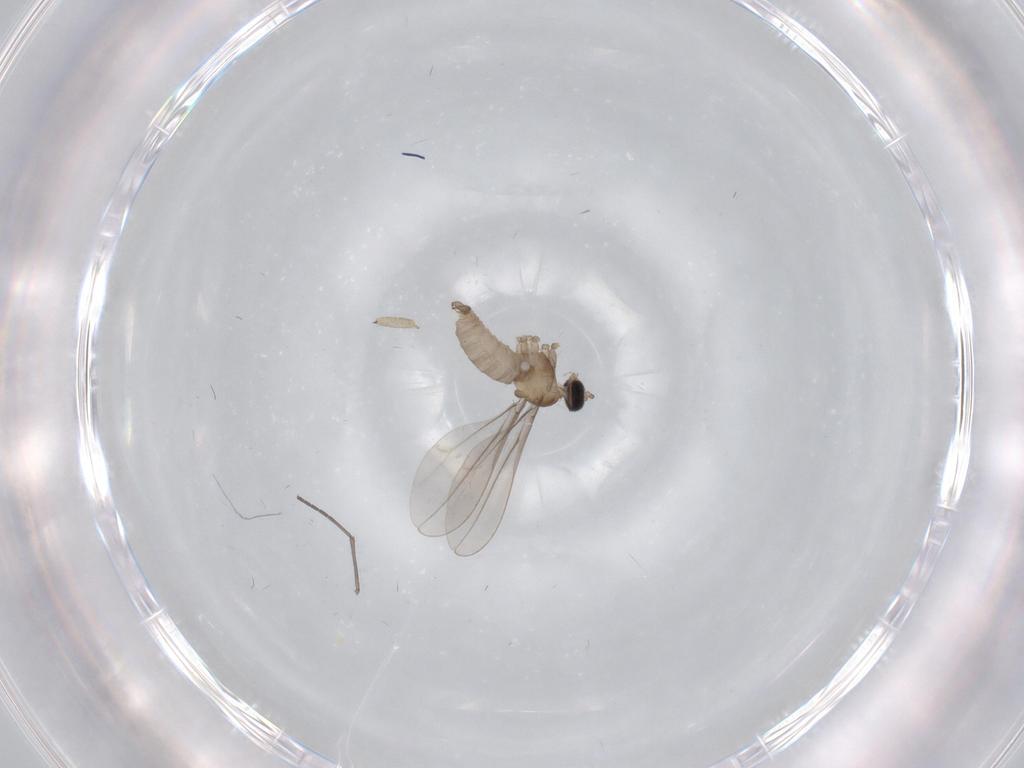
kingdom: Animalia
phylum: Arthropoda
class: Insecta
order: Diptera
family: Sciaridae
